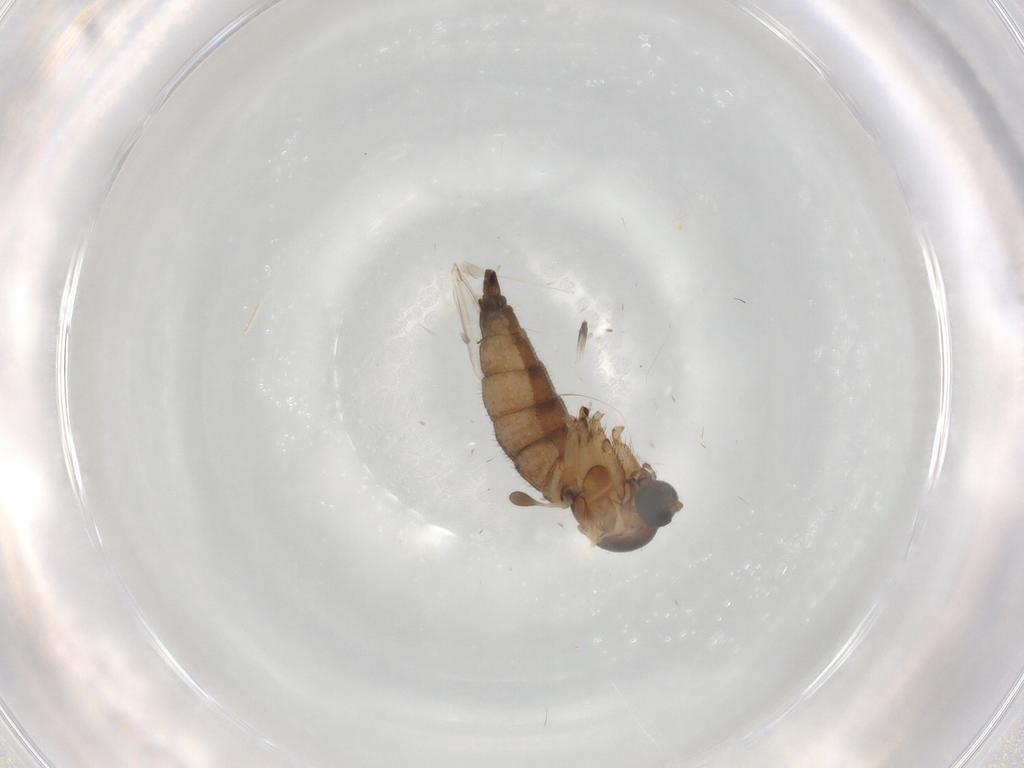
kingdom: Animalia
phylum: Arthropoda
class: Insecta
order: Diptera
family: Sciaridae
